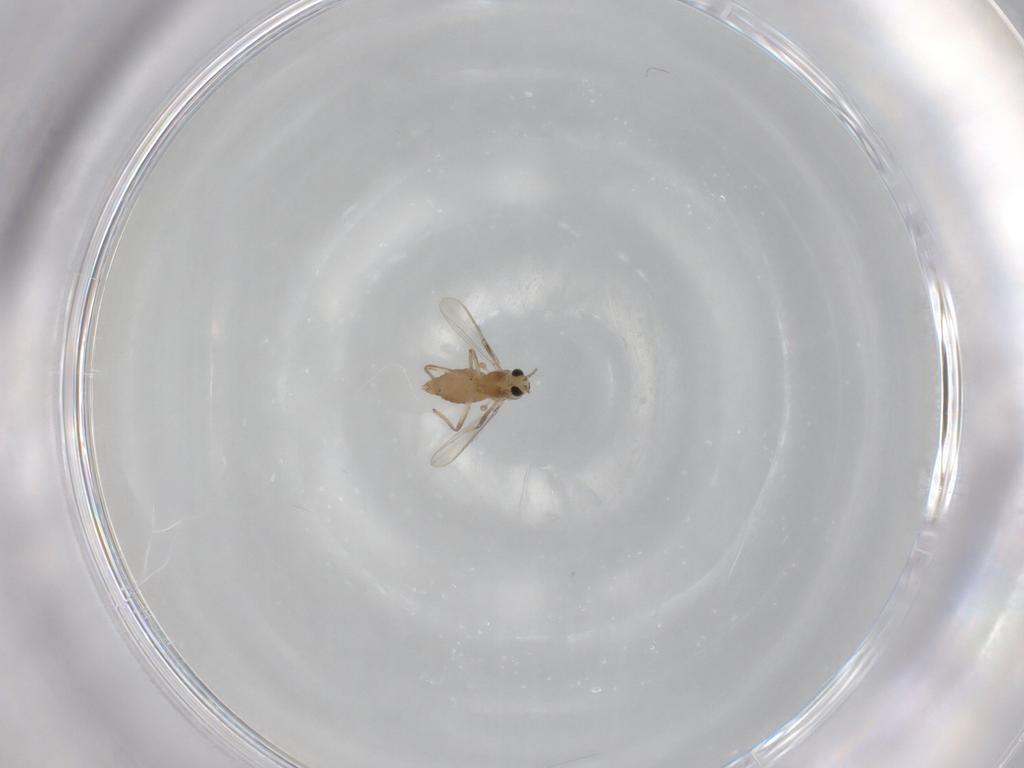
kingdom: Animalia
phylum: Arthropoda
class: Insecta
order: Diptera
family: Chironomidae
